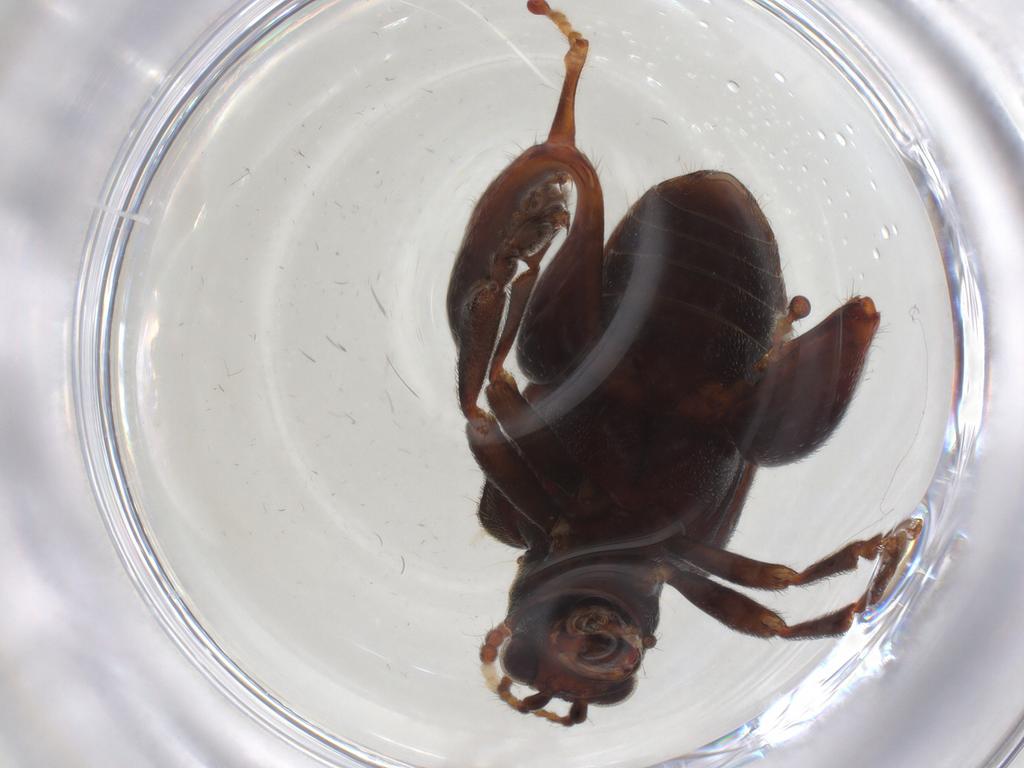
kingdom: Animalia
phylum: Arthropoda
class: Insecta
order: Coleoptera
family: Chrysomelidae
